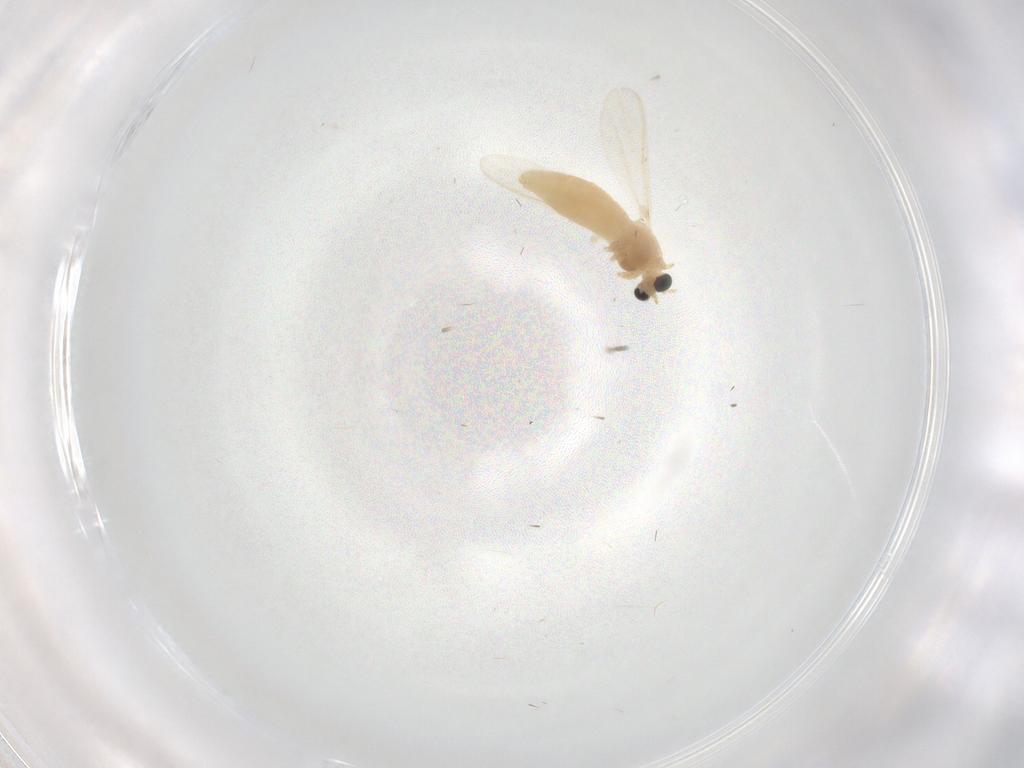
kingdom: Animalia
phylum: Arthropoda
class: Insecta
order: Diptera
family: Chironomidae
